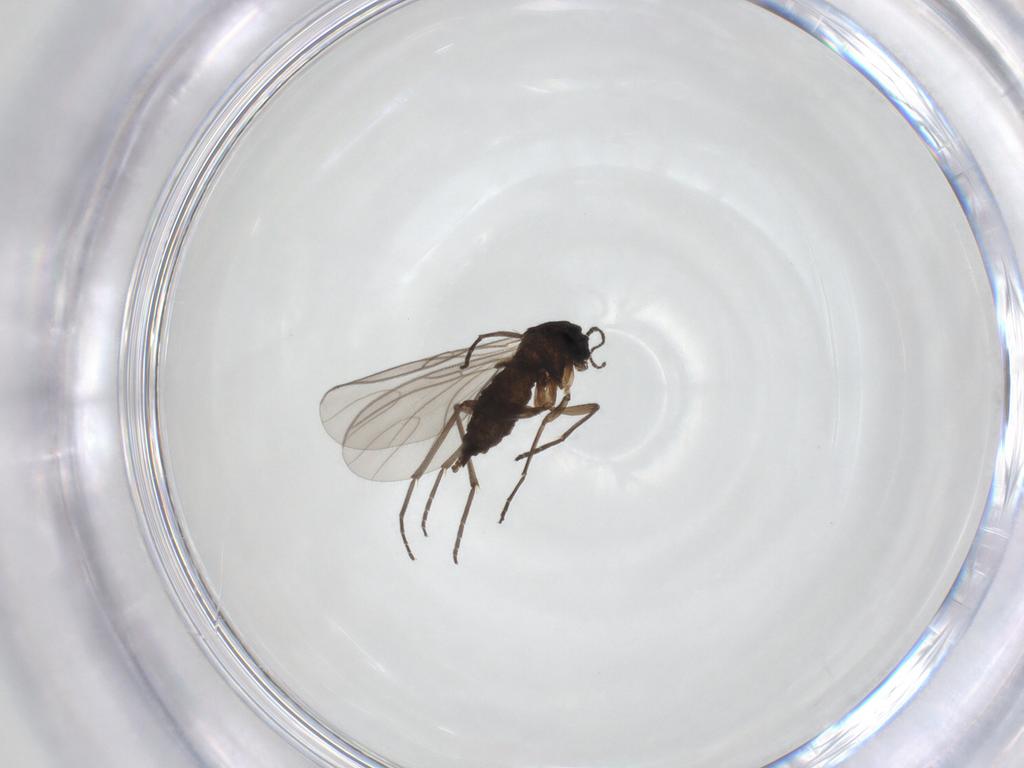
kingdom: Animalia
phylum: Arthropoda
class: Insecta
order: Diptera
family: Sciaridae
